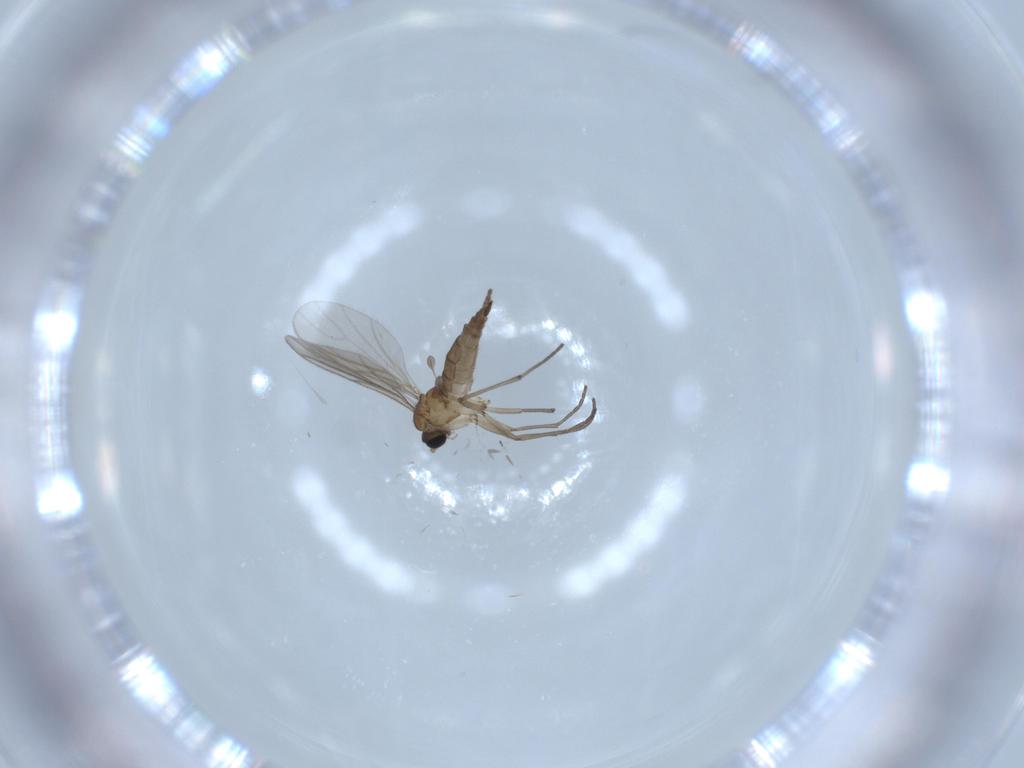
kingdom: Animalia
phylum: Arthropoda
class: Insecta
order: Diptera
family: Sciaridae
